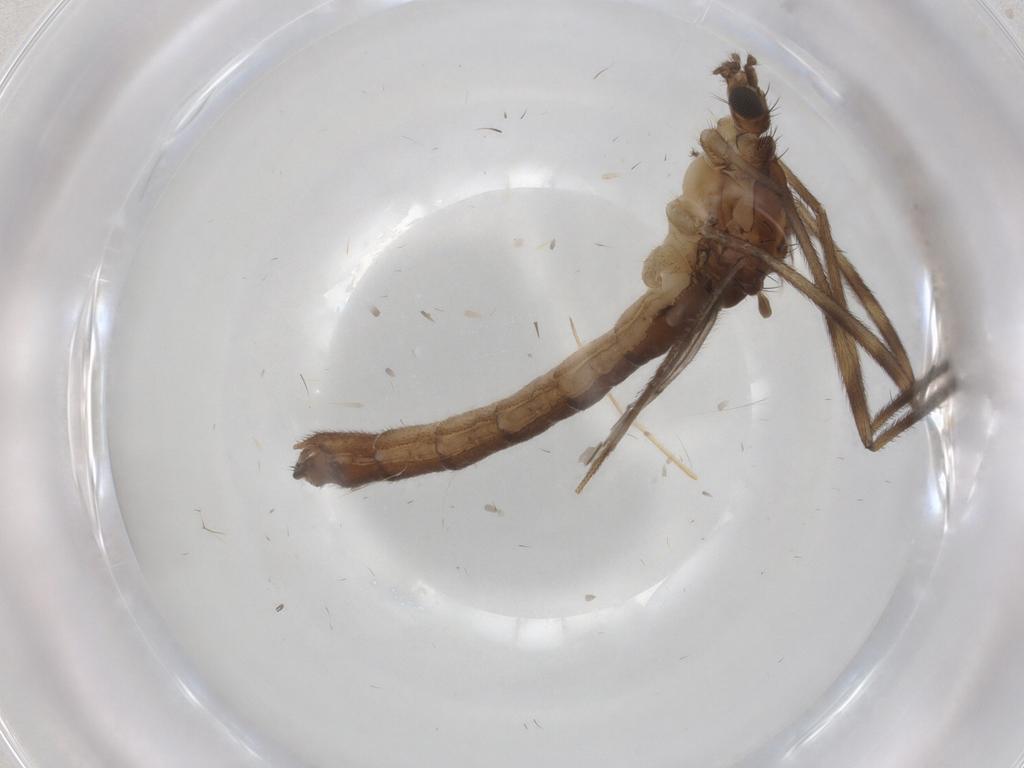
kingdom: Animalia
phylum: Arthropoda
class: Insecta
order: Diptera
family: Limoniidae
